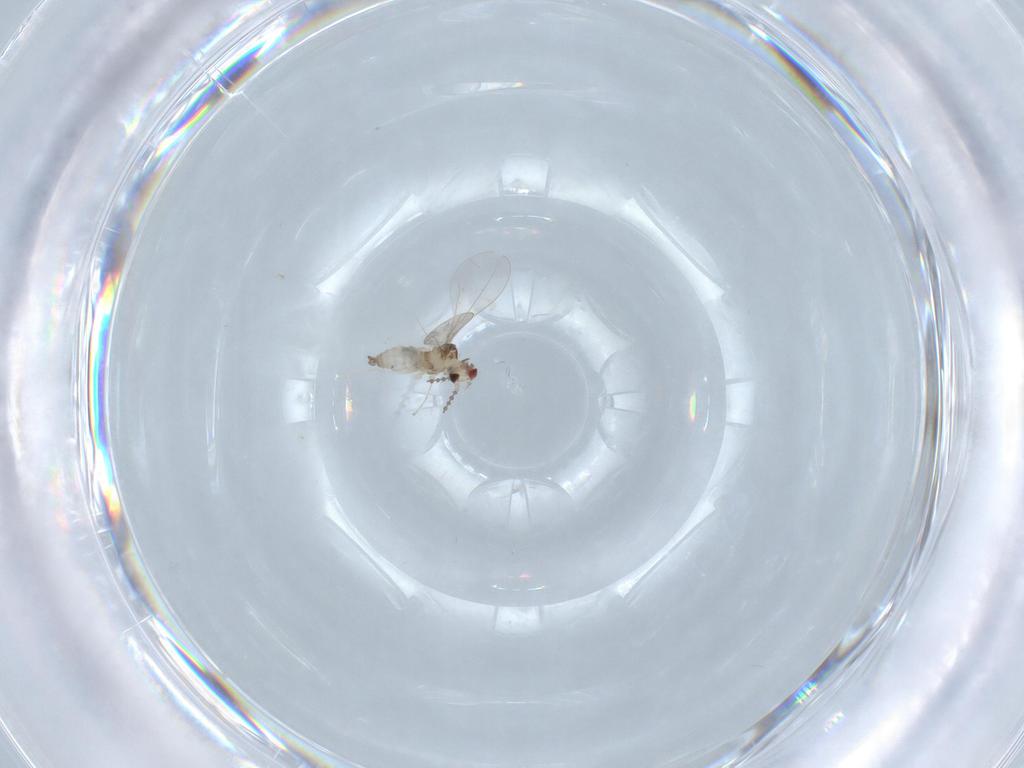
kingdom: Animalia
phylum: Arthropoda
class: Insecta
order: Diptera
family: Cecidomyiidae
